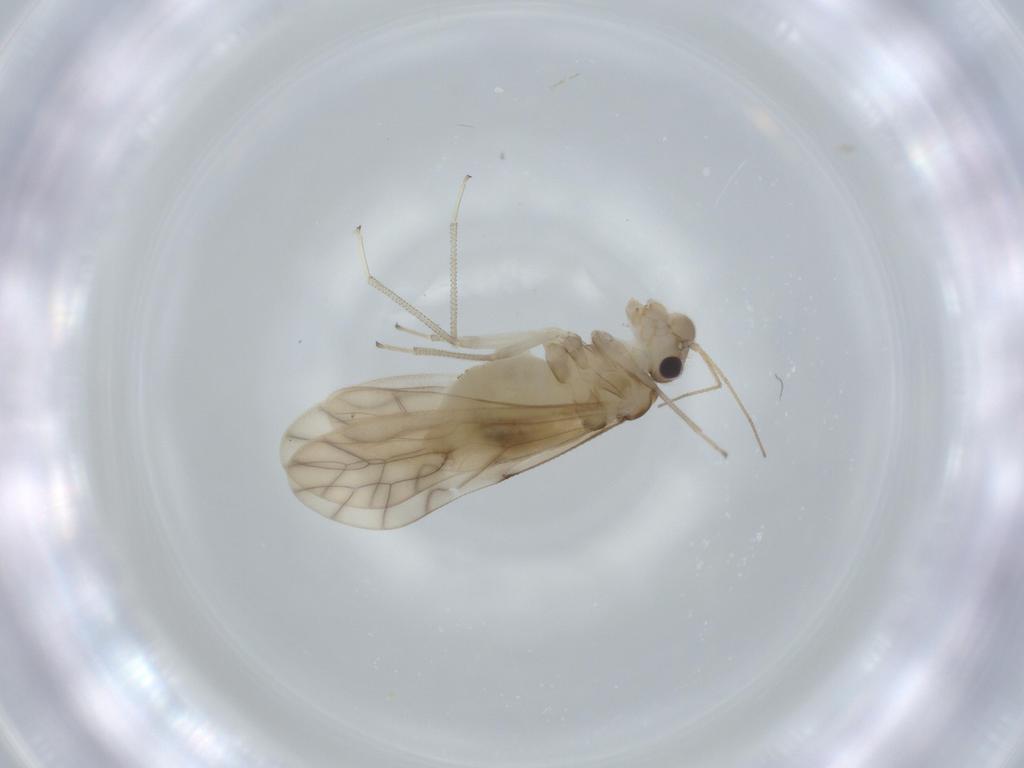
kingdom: Animalia
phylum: Arthropoda
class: Insecta
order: Psocodea
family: Caeciliusidae
